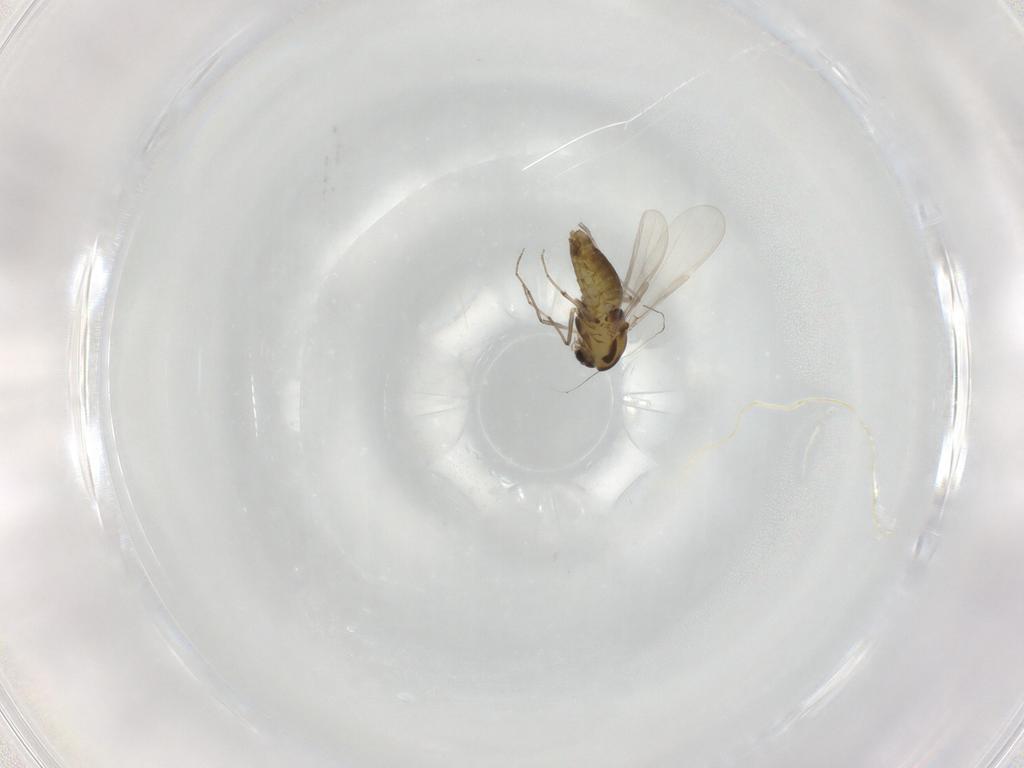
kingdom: Animalia
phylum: Arthropoda
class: Insecta
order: Diptera
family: Chironomidae
